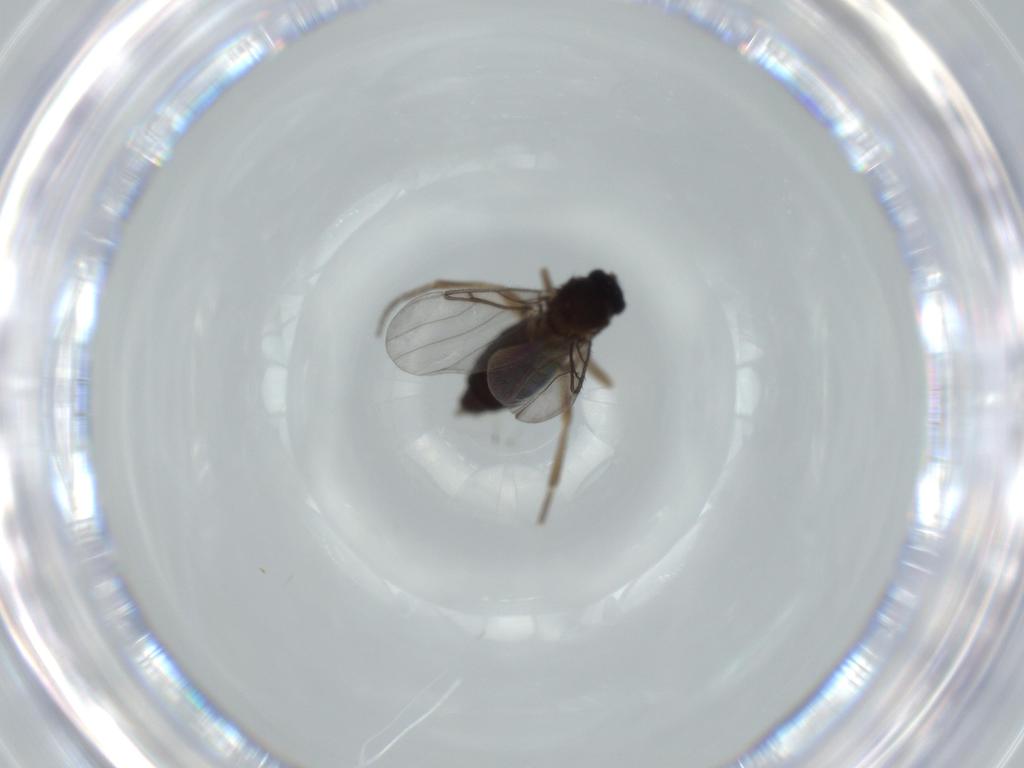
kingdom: Animalia
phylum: Arthropoda
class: Insecta
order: Diptera
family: Phoridae
